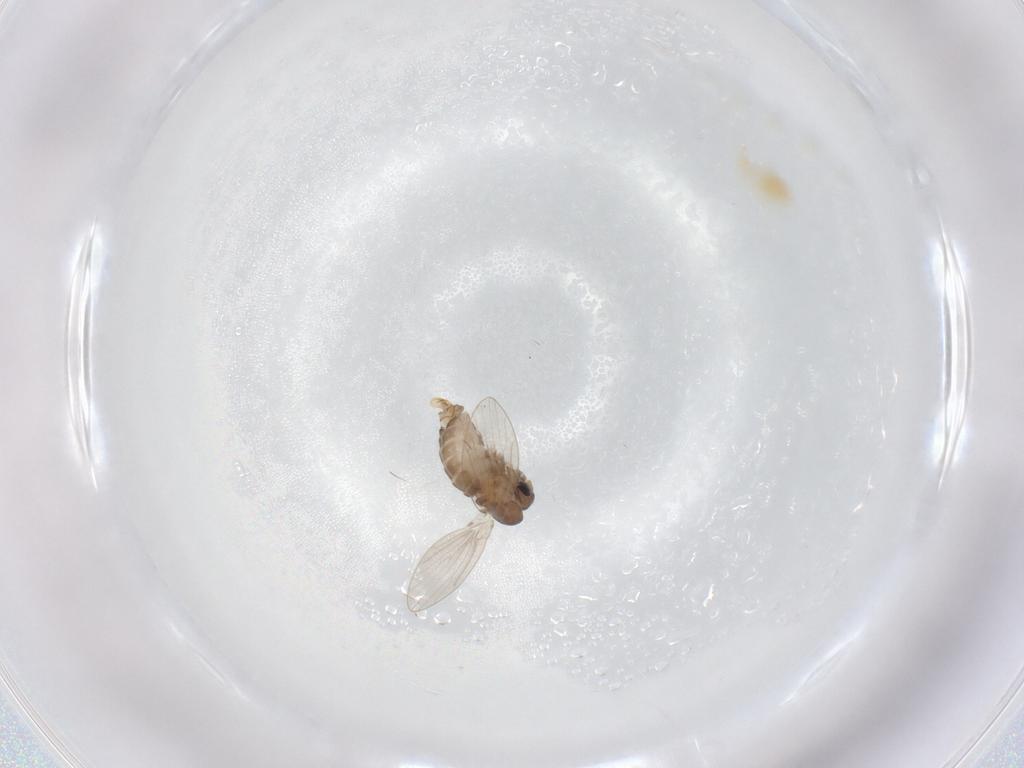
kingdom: Animalia
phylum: Arthropoda
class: Insecta
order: Diptera
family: Psychodidae
